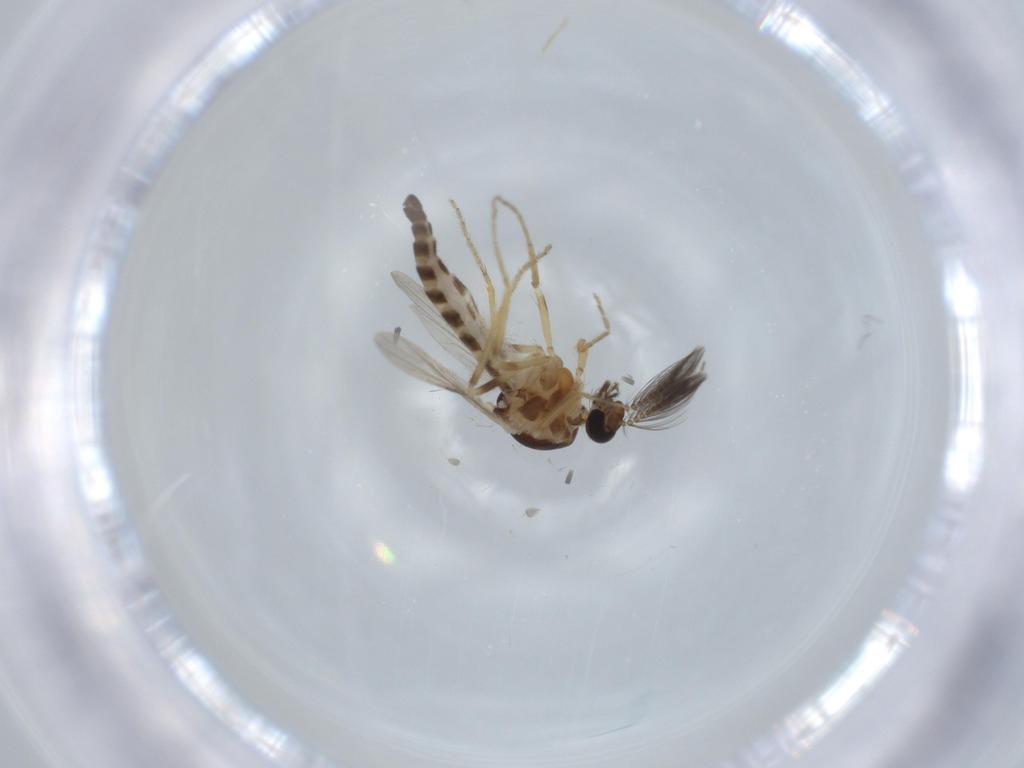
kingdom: Animalia
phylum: Arthropoda
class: Insecta
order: Diptera
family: Ceratopogonidae
